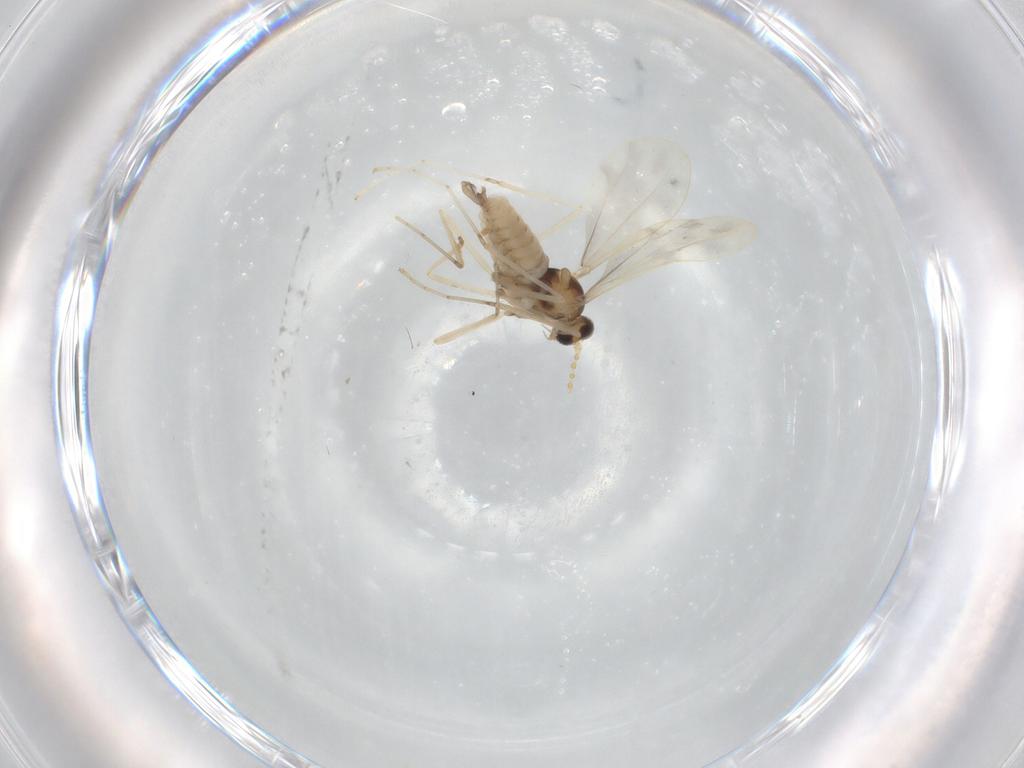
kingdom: Animalia
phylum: Arthropoda
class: Insecta
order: Diptera
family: Cecidomyiidae
